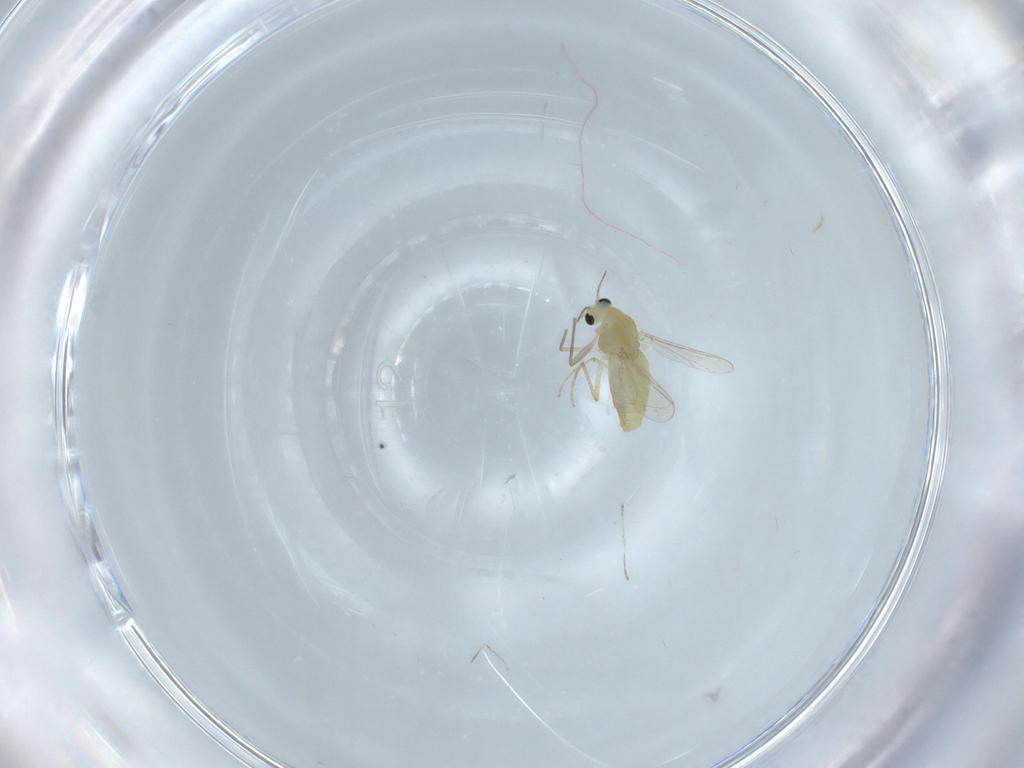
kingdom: Animalia
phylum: Arthropoda
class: Insecta
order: Diptera
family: Chironomidae
